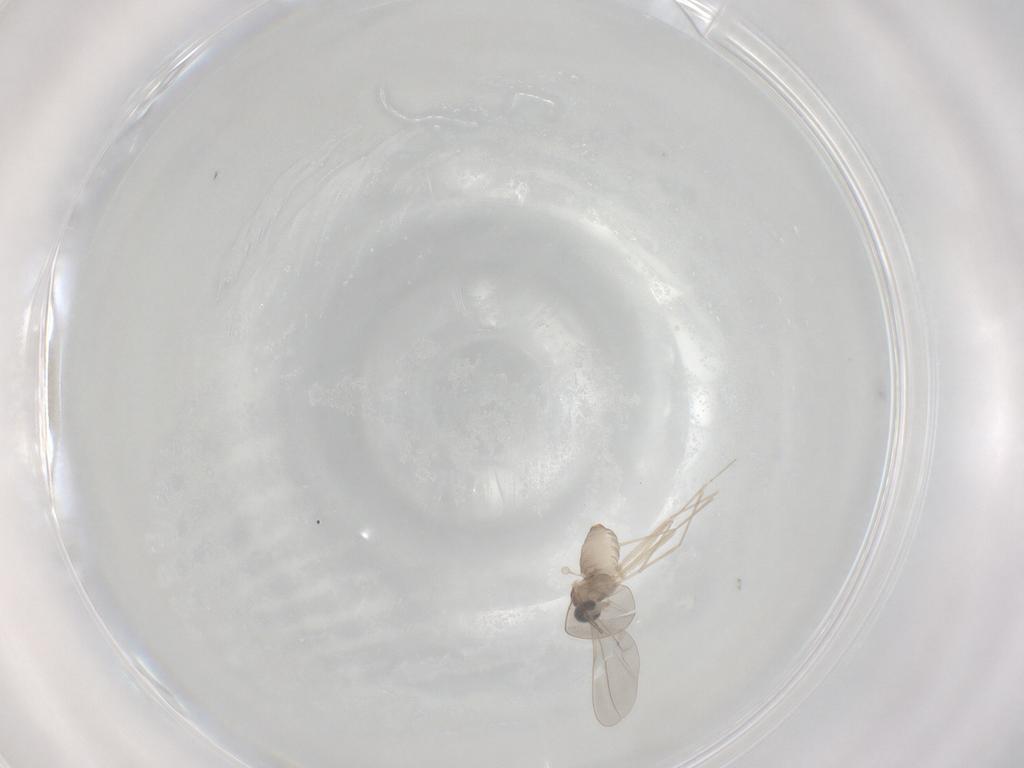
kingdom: Animalia
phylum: Arthropoda
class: Insecta
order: Diptera
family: Cecidomyiidae
